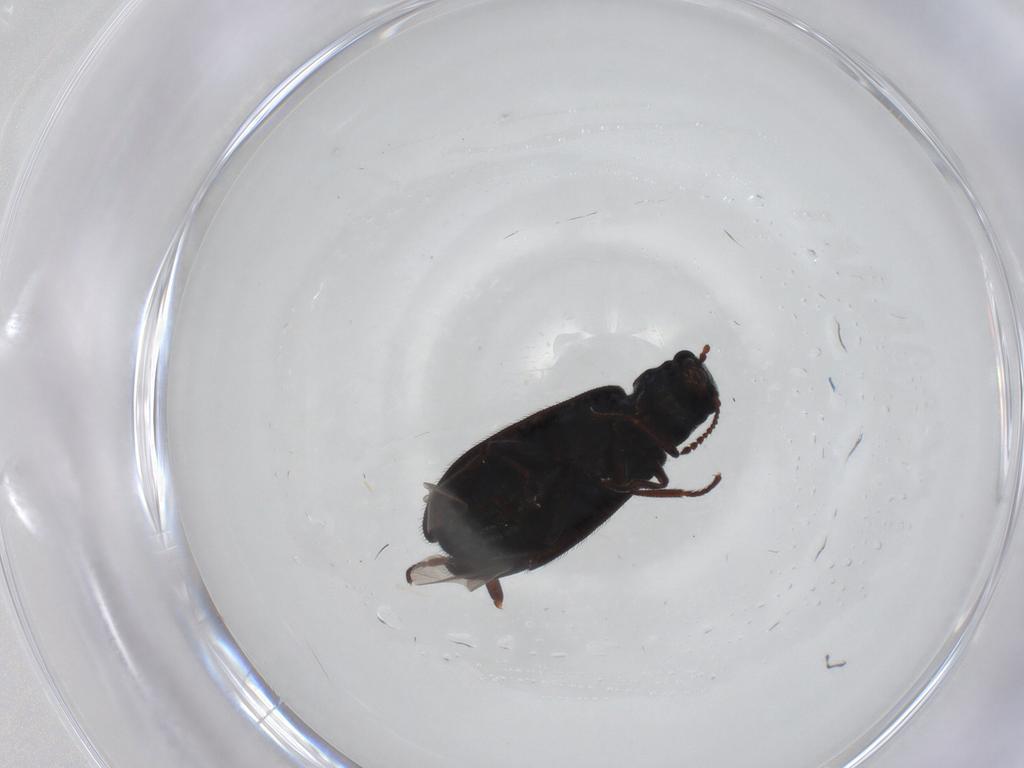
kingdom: Animalia
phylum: Arthropoda
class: Insecta
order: Coleoptera
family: Melyridae
